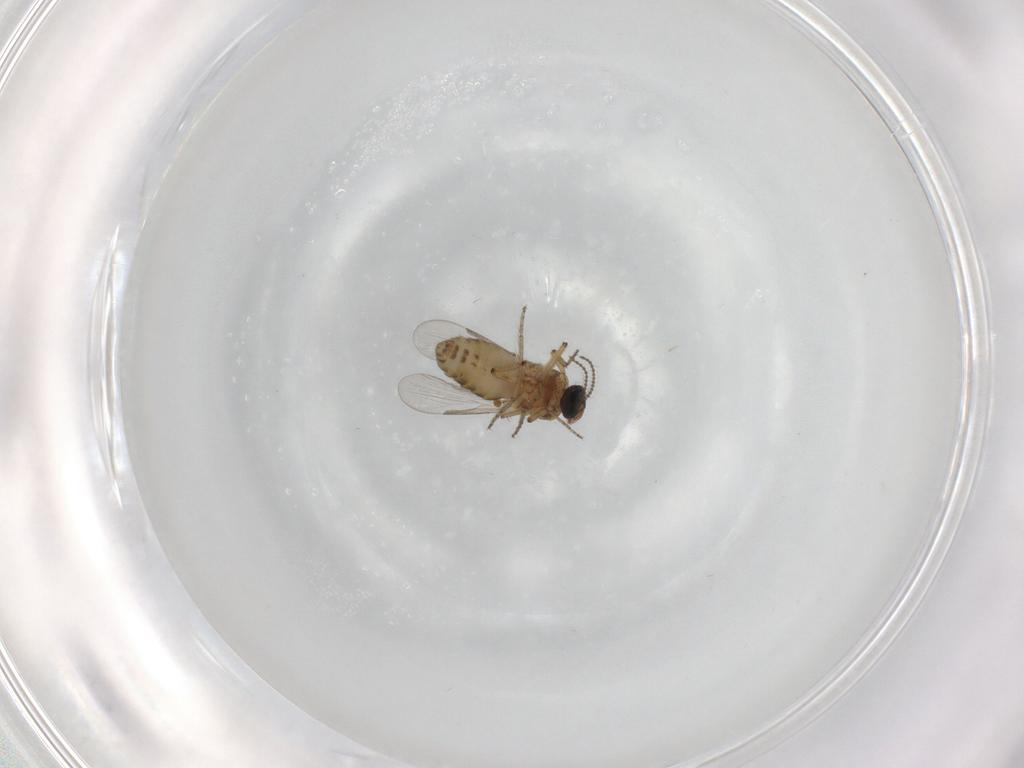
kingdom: Animalia
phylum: Arthropoda
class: Insecta
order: Diptera
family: Ceratopogonidae
